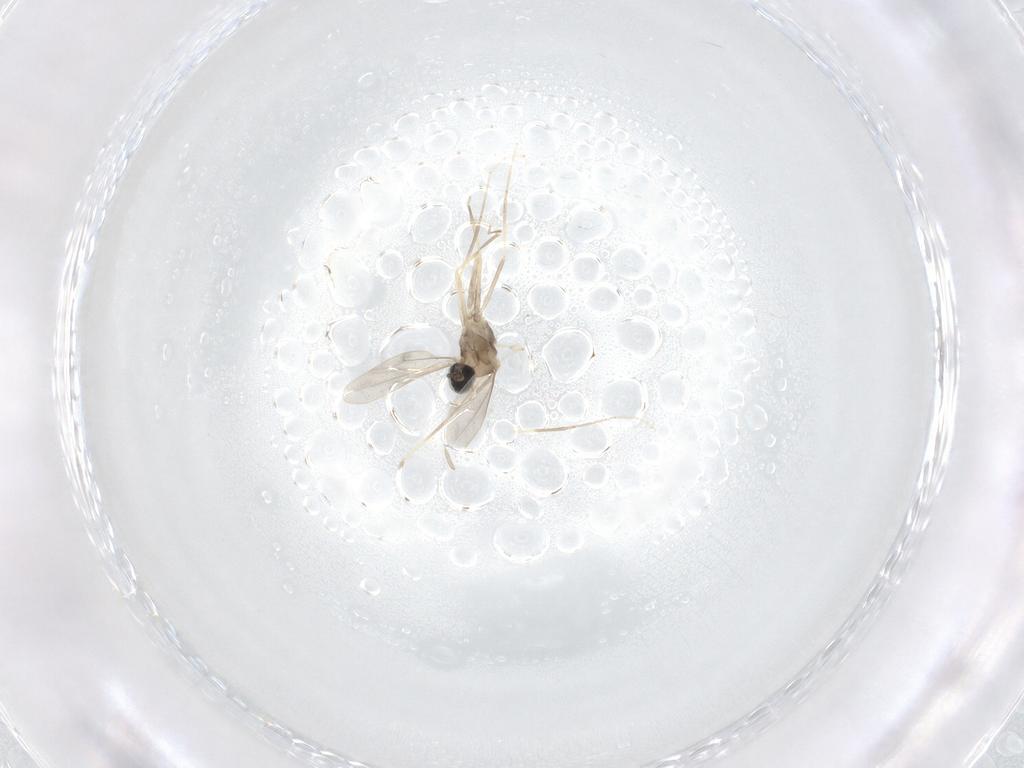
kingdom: Animalia
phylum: Arthropoda
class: Insecta
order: Diptera
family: Cecidomyiidae
